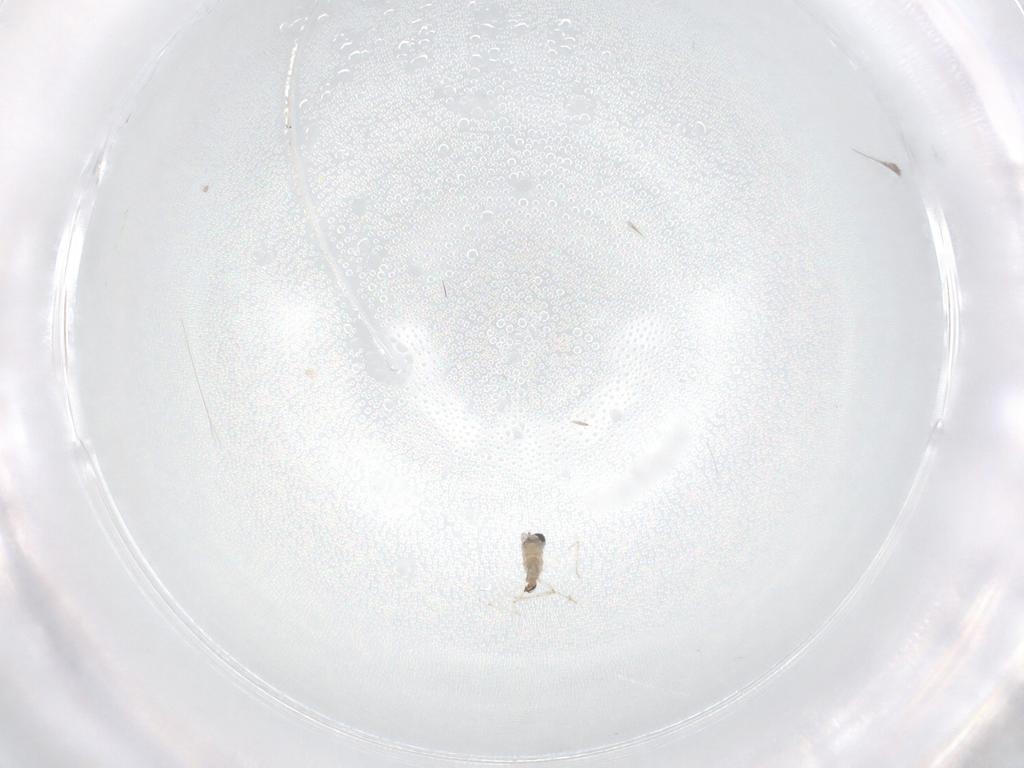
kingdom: Animalia
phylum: Arthropoda
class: Insecta
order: Diptera
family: Cecidomyiidae
